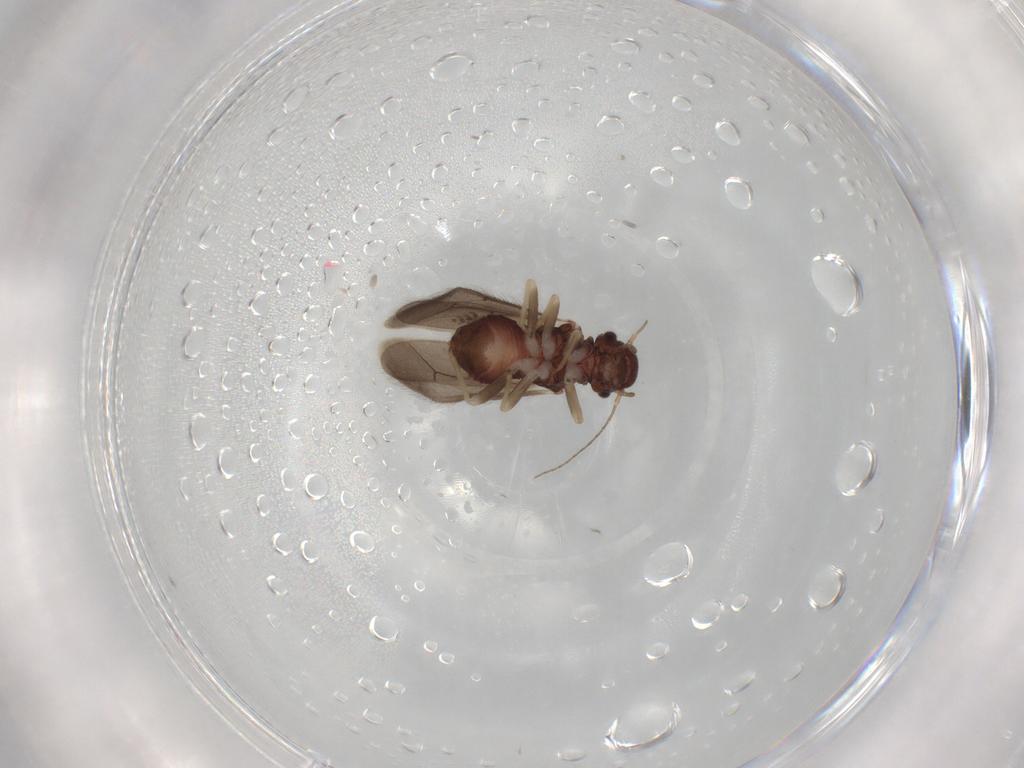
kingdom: Animalia
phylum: Arthropoda
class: Insecta
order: Psocodea
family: Archipsocidae
